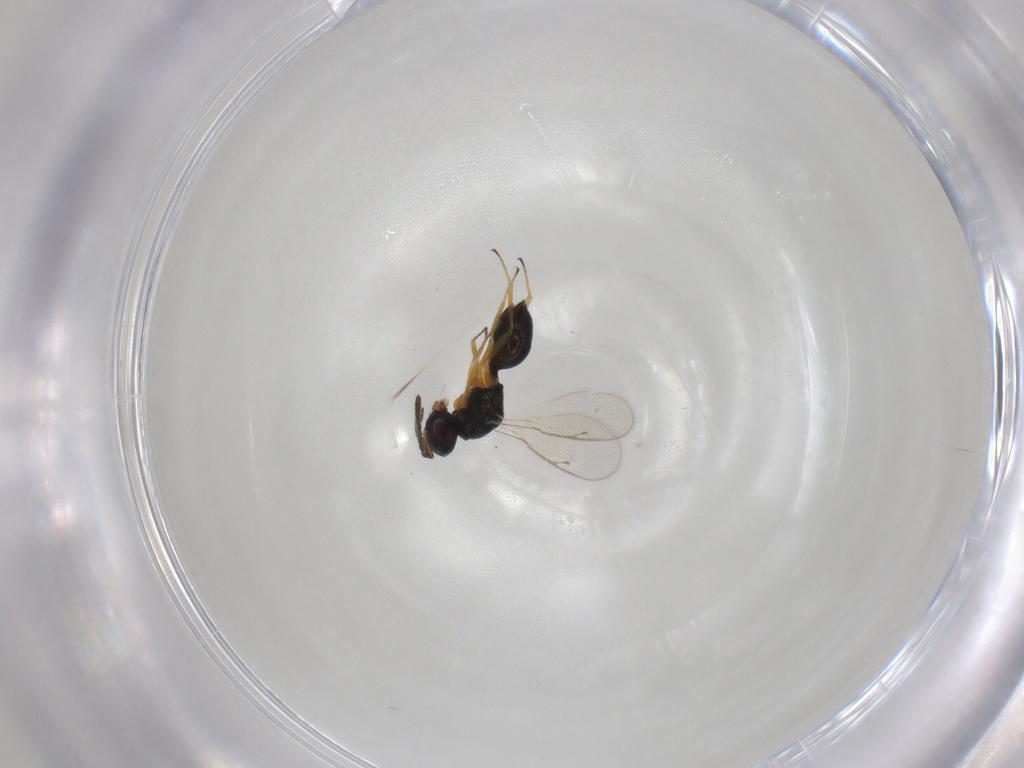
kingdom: Animalia
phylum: Arthropoda
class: Insecta
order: Hymenoptera
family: Pteromalidae
